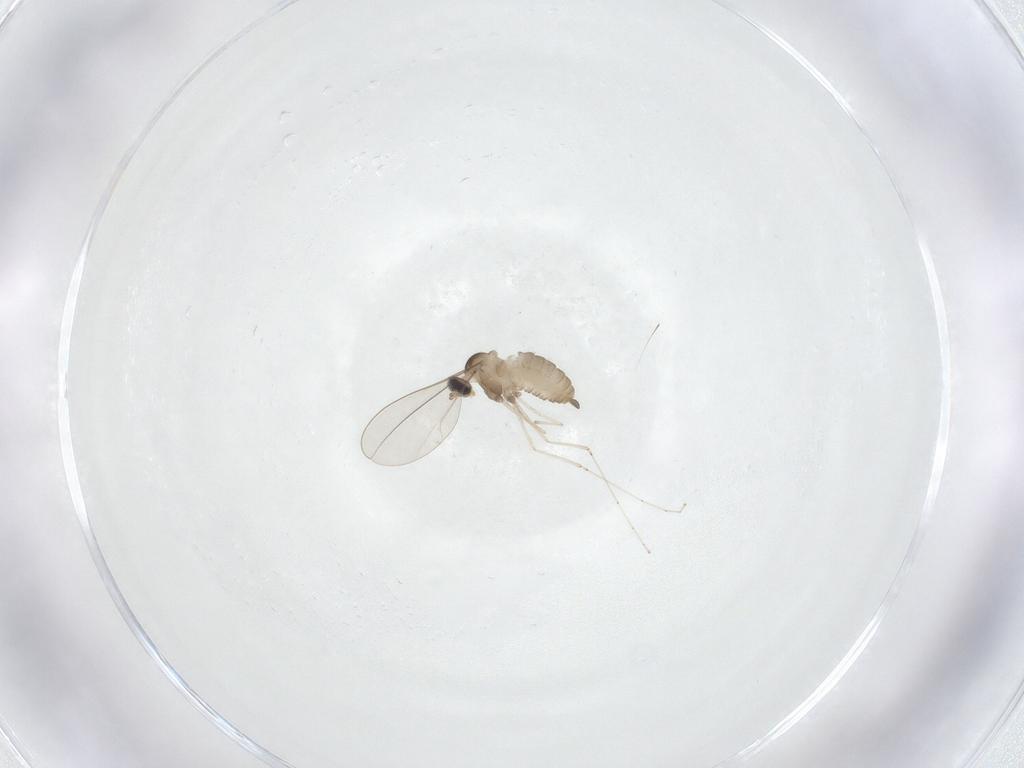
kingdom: Animalia
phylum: Arthropoda
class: Insecta
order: Diptera
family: Cecidomyiidae
